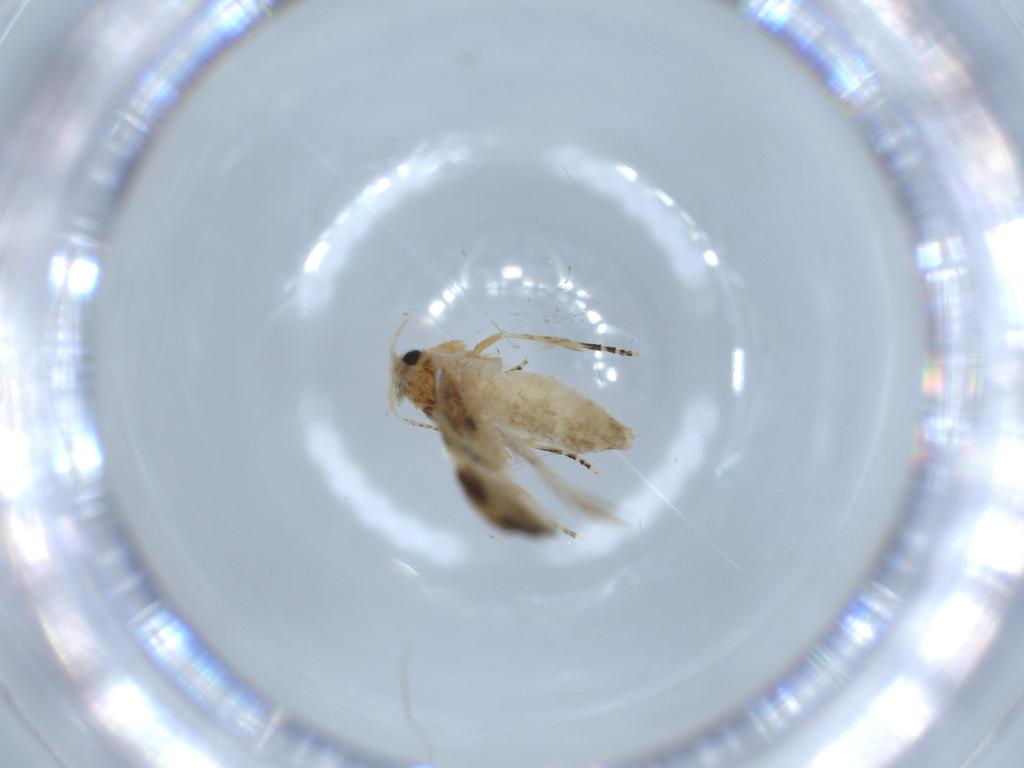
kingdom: Animalia
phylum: Arthropoda
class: Insecta
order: Lepidoptera
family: Bucculatricidae
